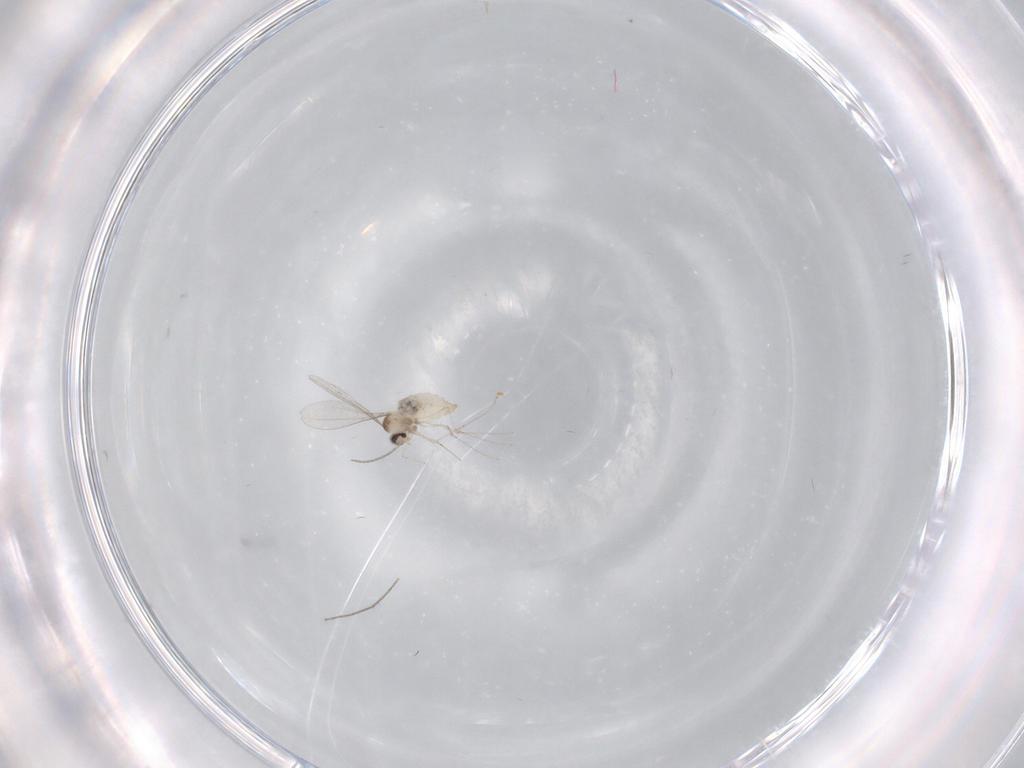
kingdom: Animalia
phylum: Arthropoda
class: Insecta
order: Diptera
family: Cecidomyiidae
